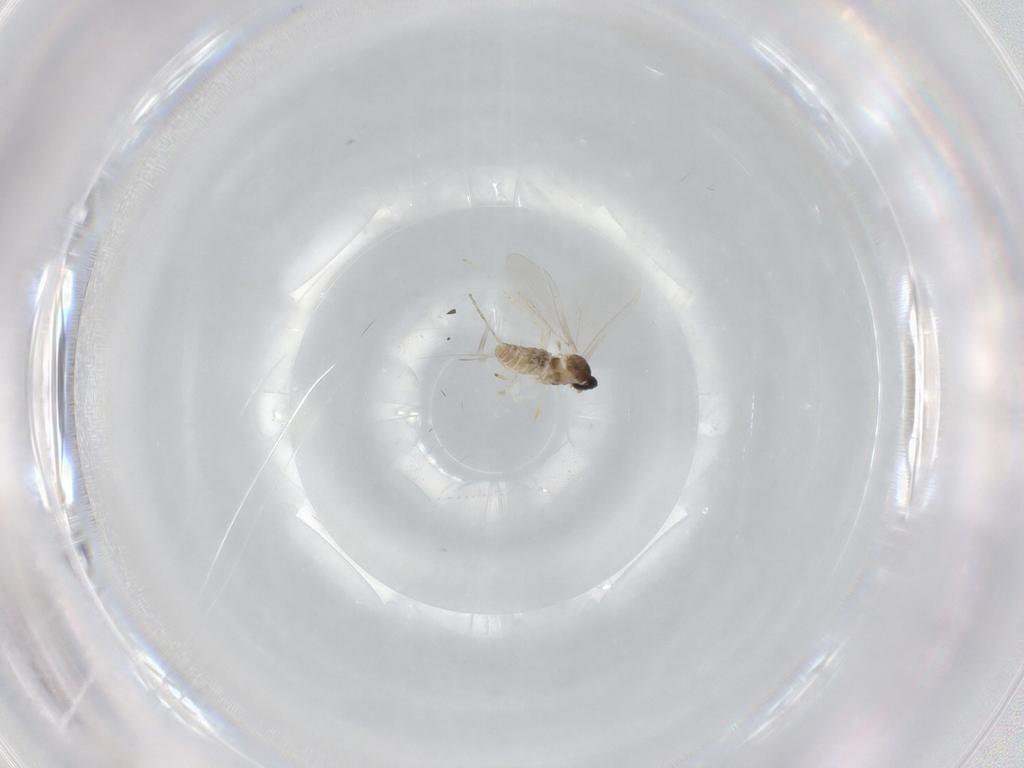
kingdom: Animalia
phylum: Arthropoda
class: Insecta
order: Diptera
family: Cecidomyiidae
